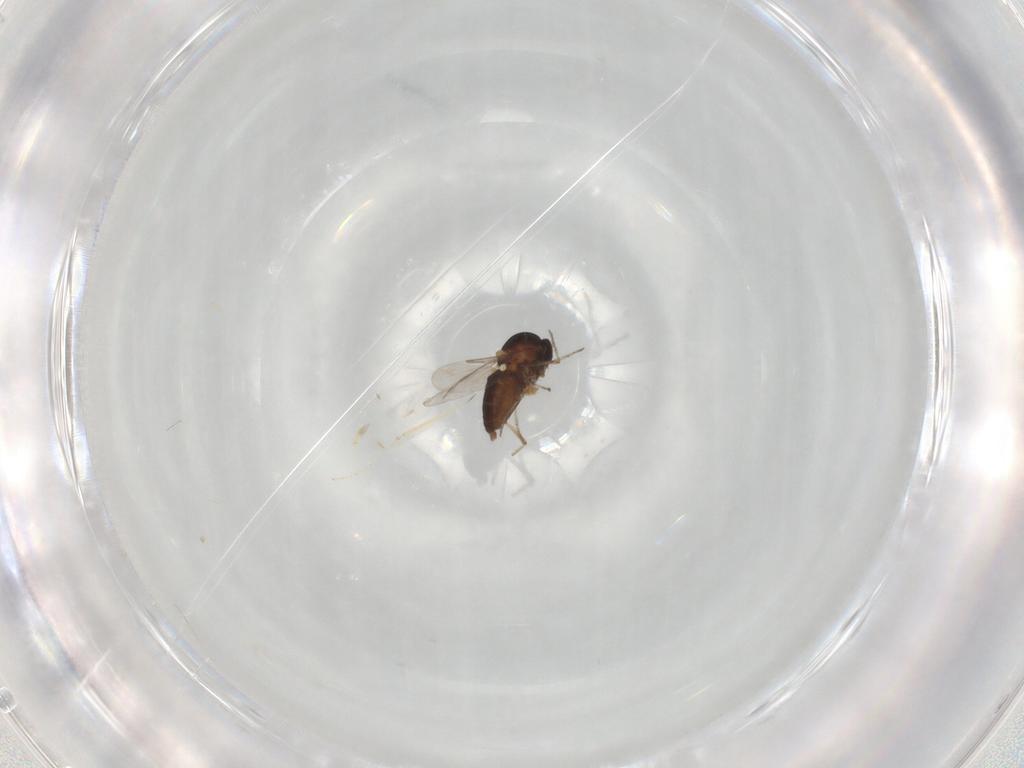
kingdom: Animalia
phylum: Arthropoda
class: Insecta
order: Diptera
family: Ceratopogonidae
